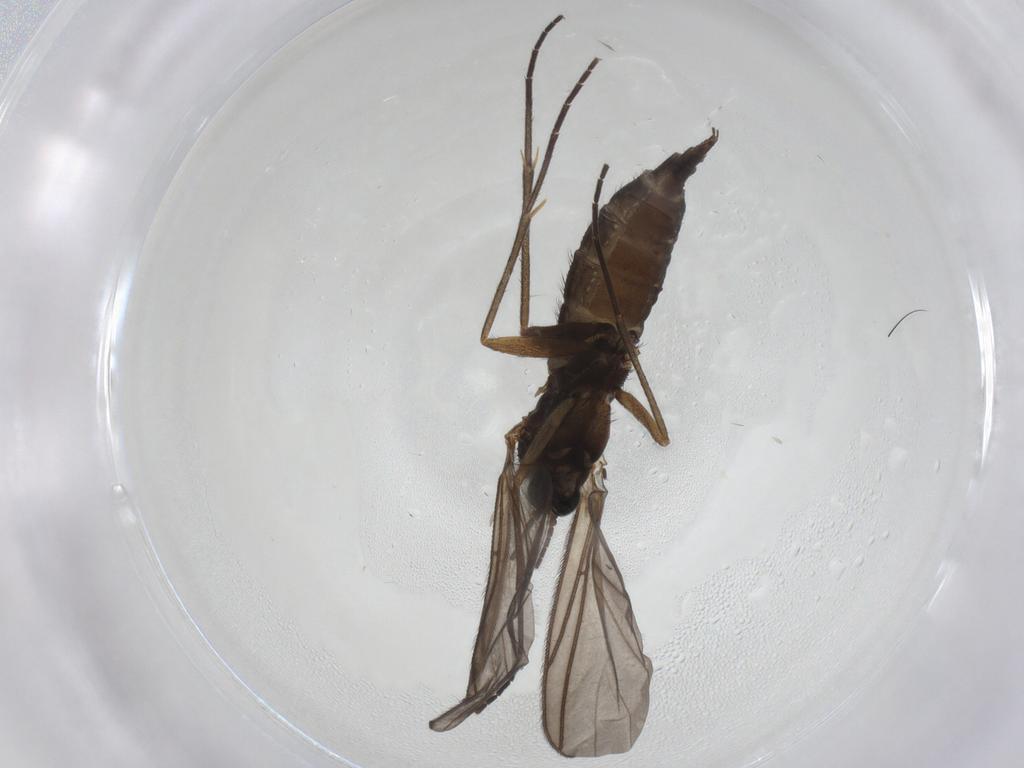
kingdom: Animalia
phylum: Arthropoda
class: Insecta
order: Diptera
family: Sciaridae
